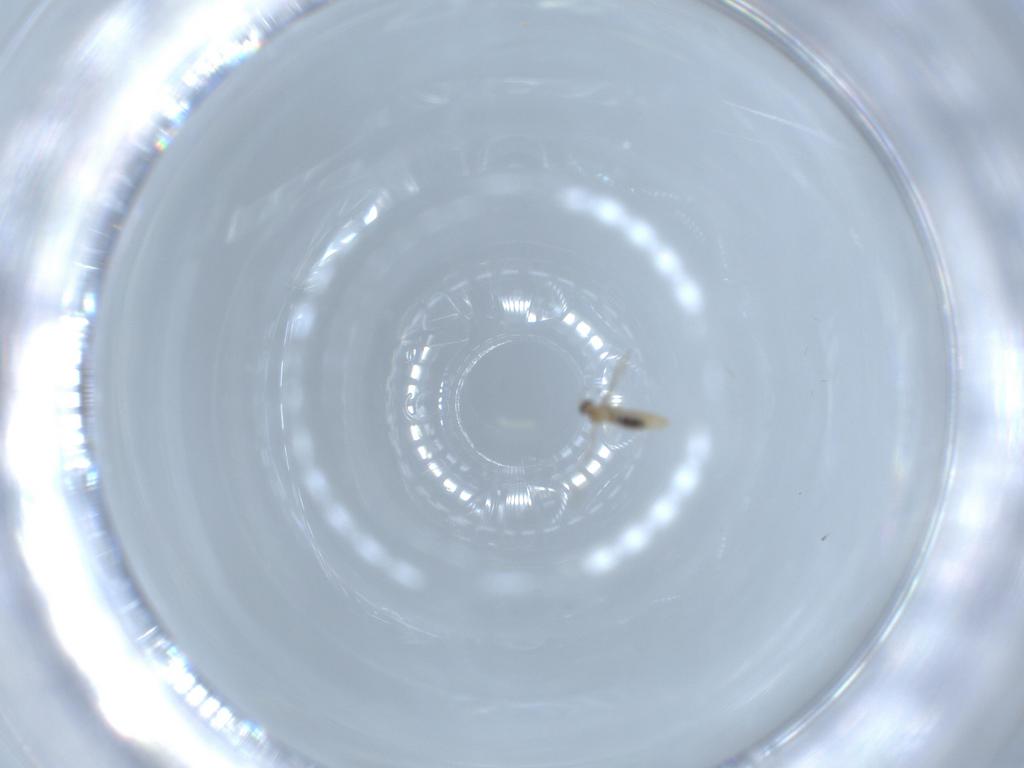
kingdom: Animalia
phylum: Arthropoda
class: Insecta
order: Diptera
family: Cecidomyiidae
